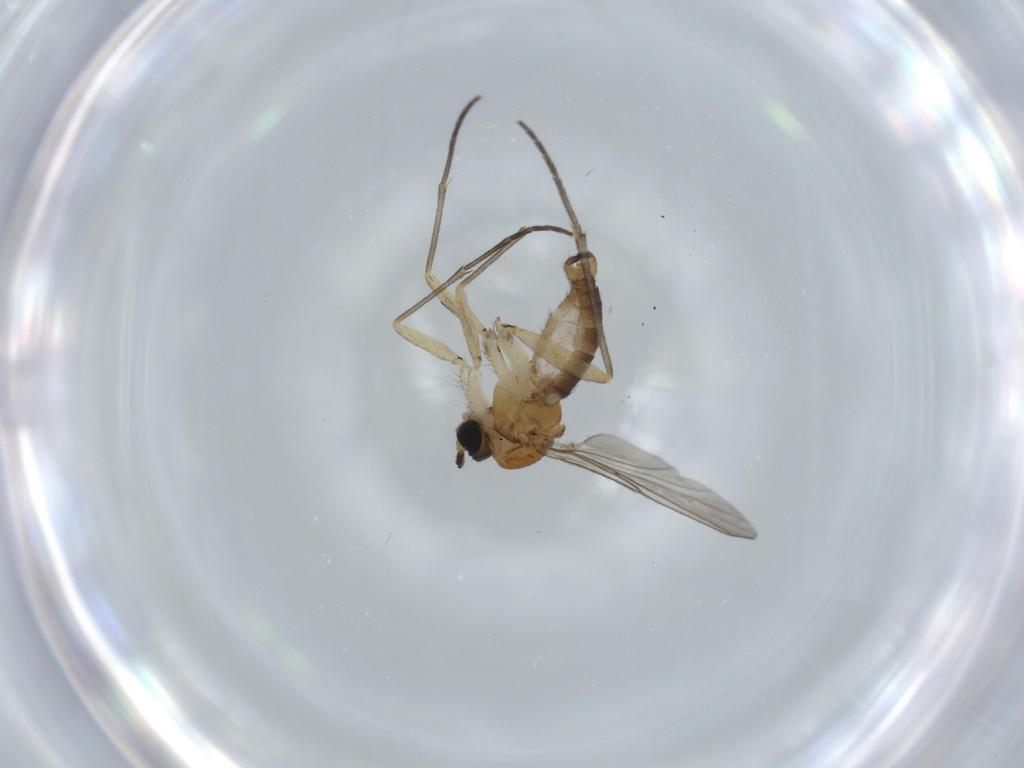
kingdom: Animalia
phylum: Arthropoda
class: Insecta
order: Diptera
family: Sciaridae
